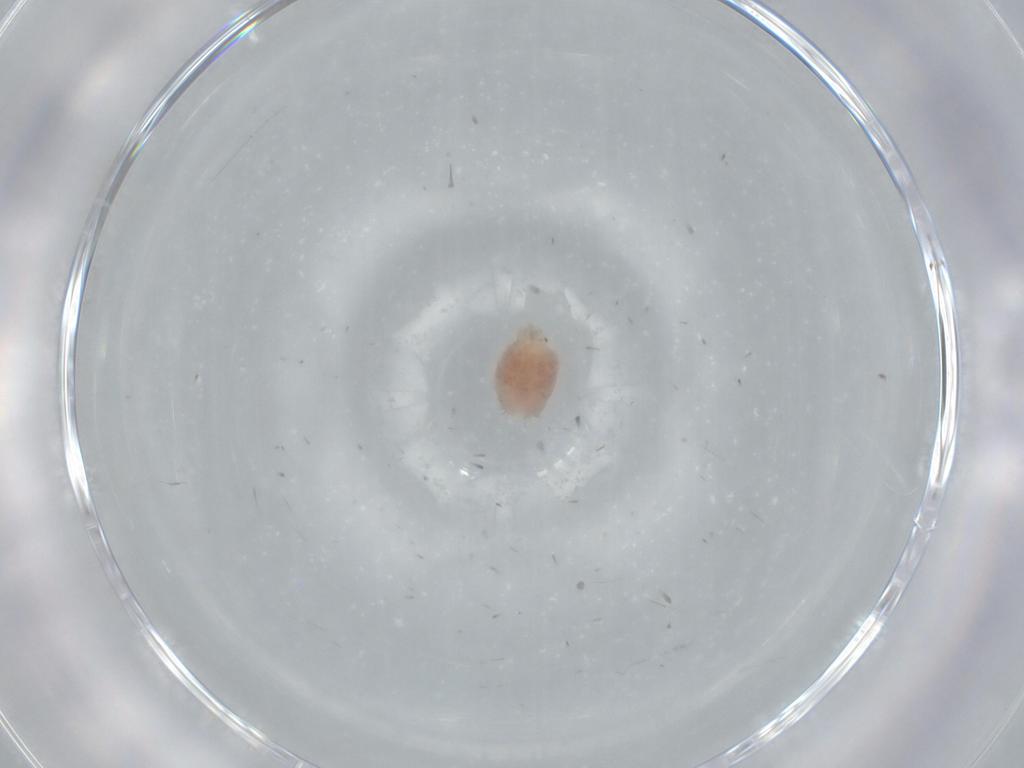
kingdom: Animalia
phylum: Arthropoda
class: Arachnida
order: Araneae
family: Gnaphosidae
